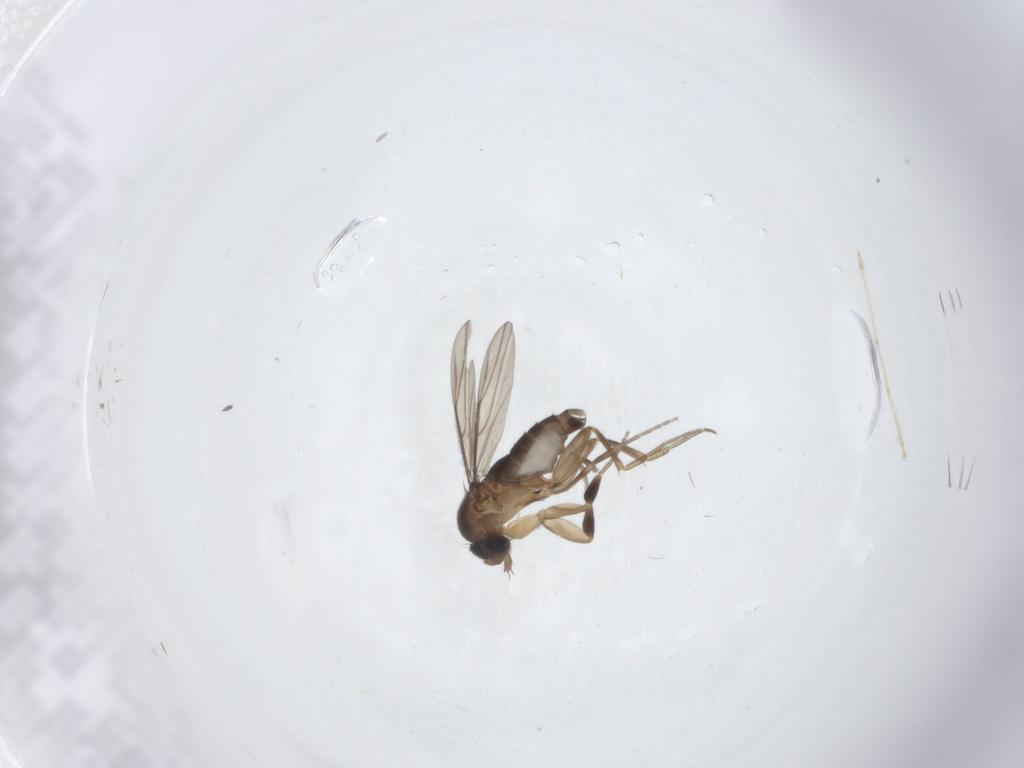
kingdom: Animalia
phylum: Arthropoda
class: Insecta
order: Diptera
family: Phoridae
